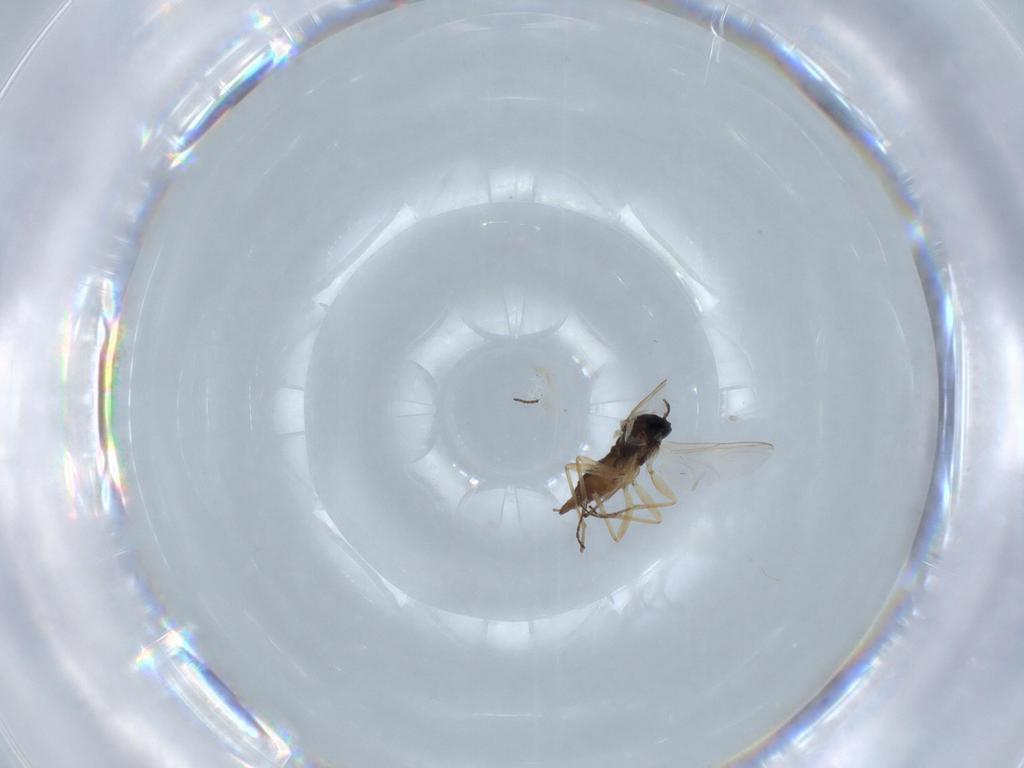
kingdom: Animalia
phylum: Arthropoda
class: Insecta
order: Diptera
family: Sciaridae
